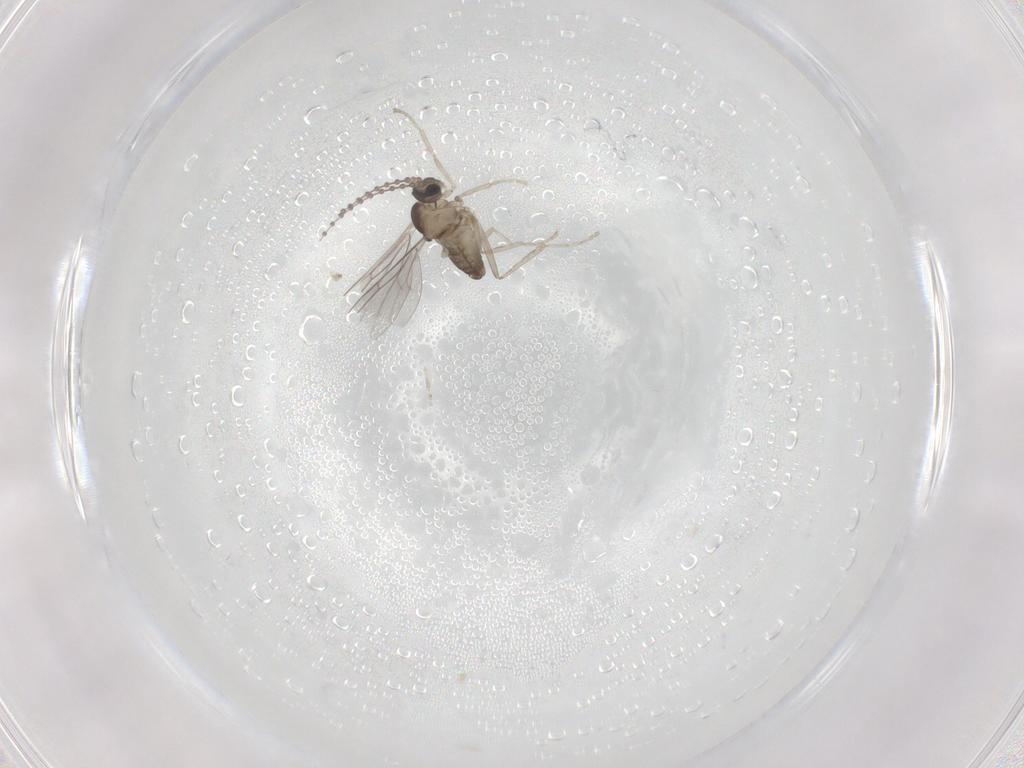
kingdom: Animalia
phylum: Arthropoda
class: Insecta
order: Diptera
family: Cecidomyiidae
